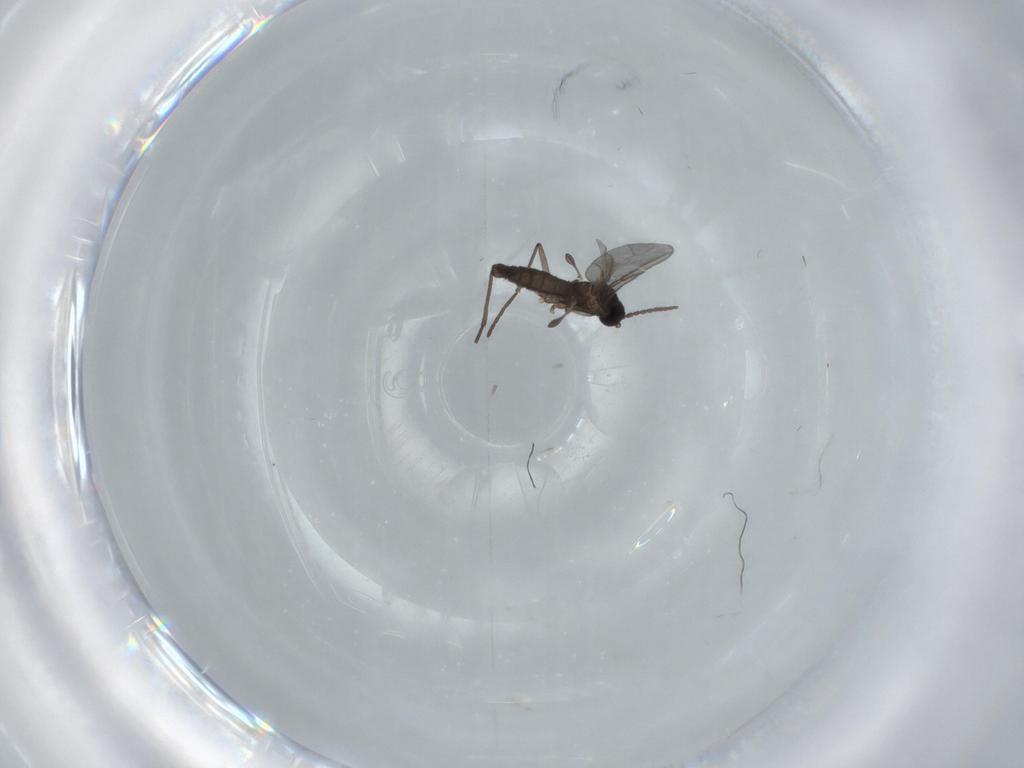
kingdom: Animalia
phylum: Arthropoda
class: Insecta
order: Diptera
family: Sciaridae
